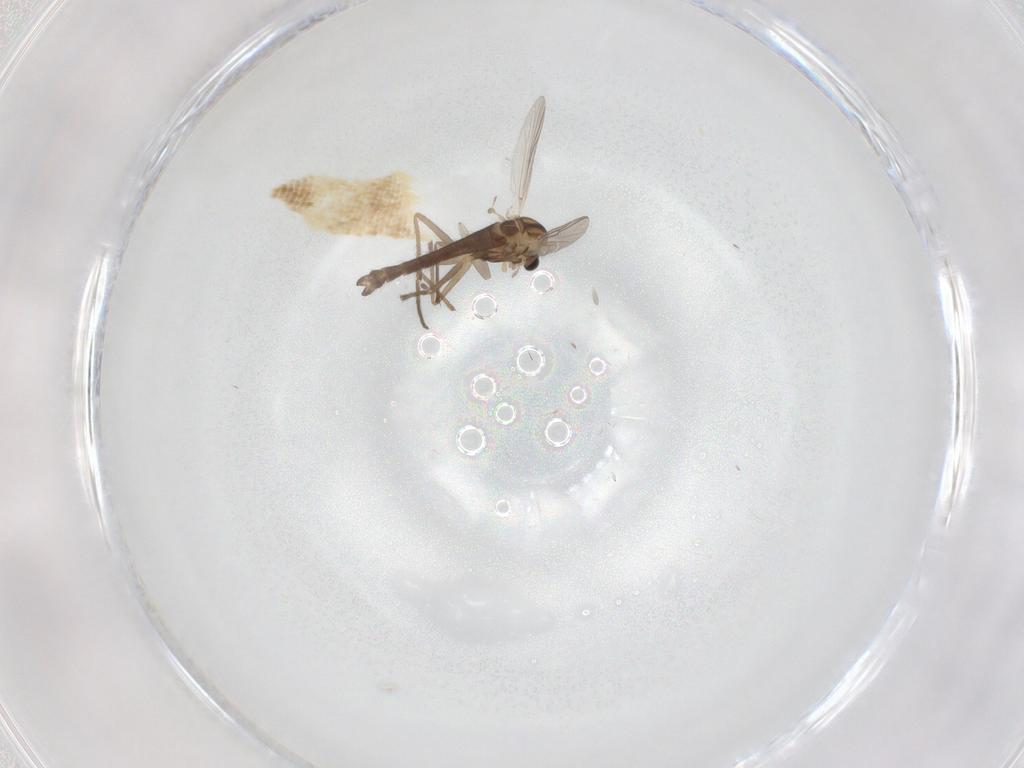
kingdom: Animalia
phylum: Arthropoda
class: Insecta
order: Diptera
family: Chironomidae
